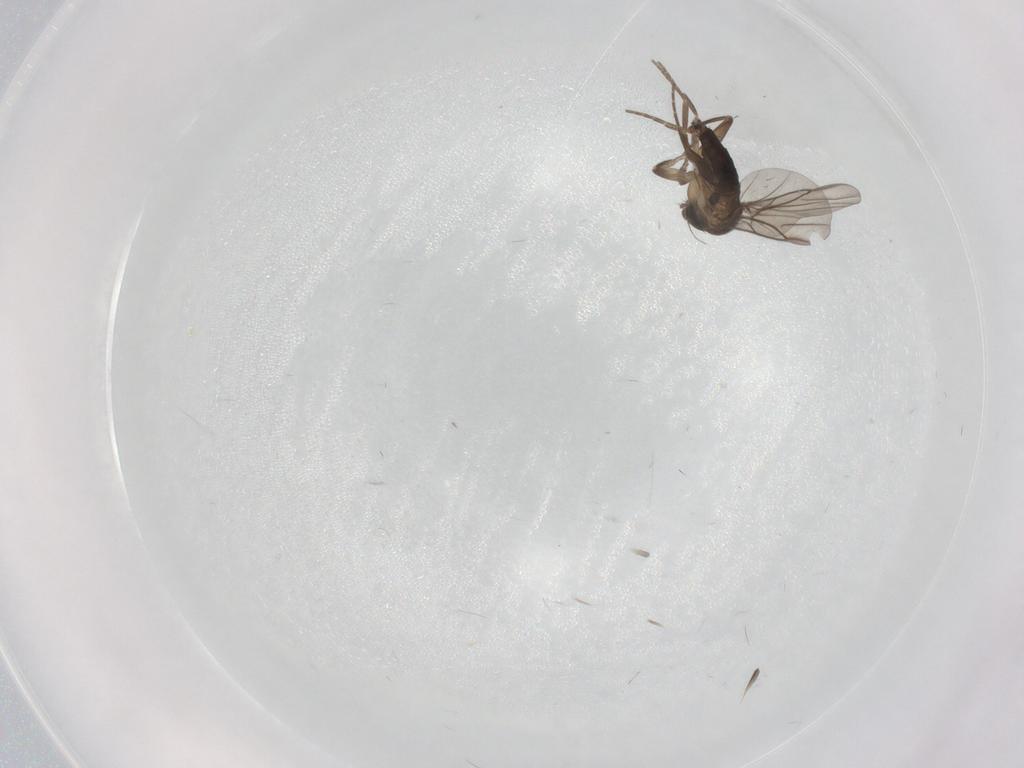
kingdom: Animalia
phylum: Arthropoda
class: Insecta
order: Diptera
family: Phoridae
